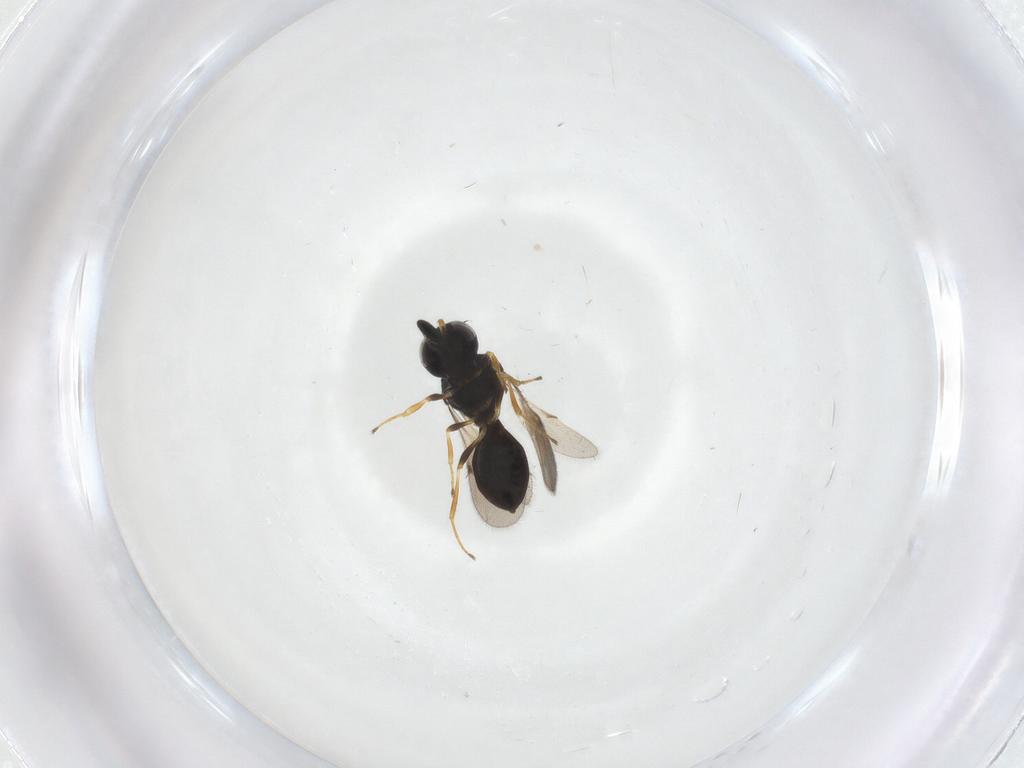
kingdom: Animalia
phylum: Arthropoda
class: Insecta
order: Hymenoptera
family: Scelionidae
